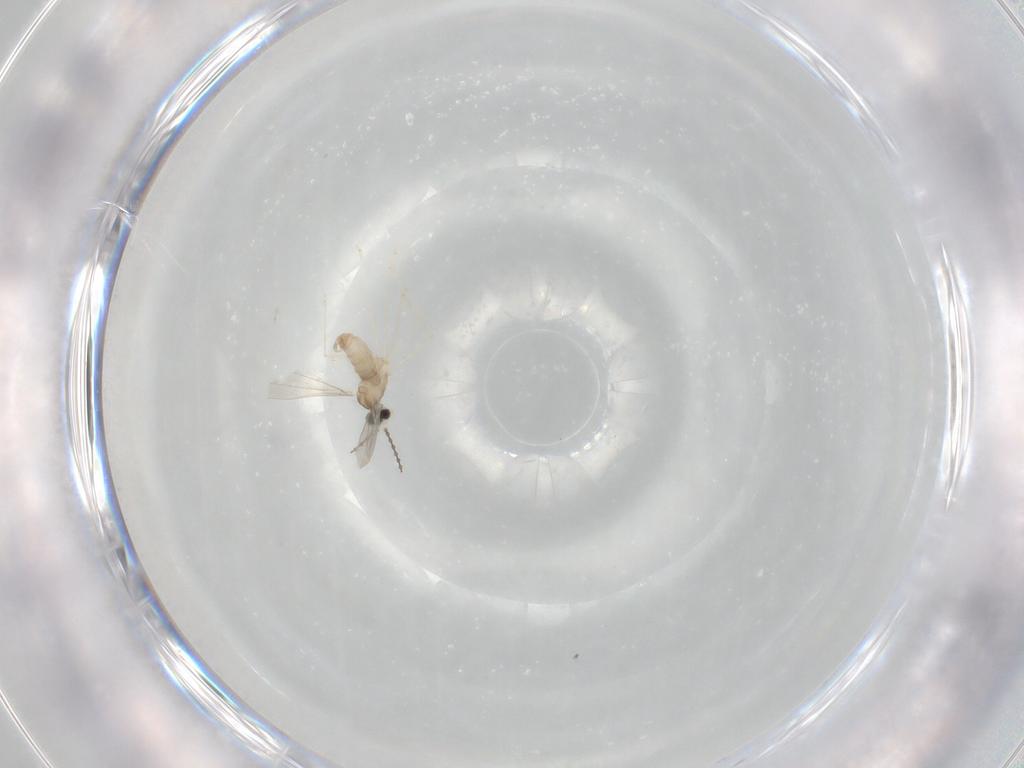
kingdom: Animalia
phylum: Arthropoda
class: Insecta
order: Diptera
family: Cecidomyiidae
